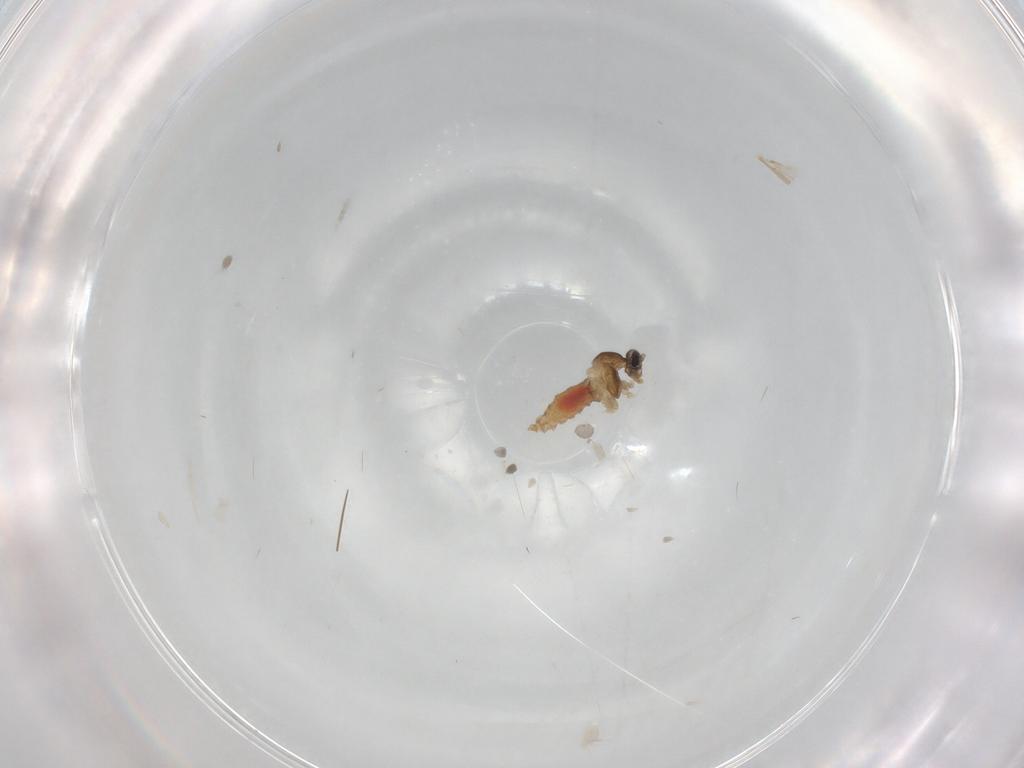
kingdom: Animalia
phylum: Arthropoda
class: Insecta
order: Diptera
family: Cecidomyiidae
